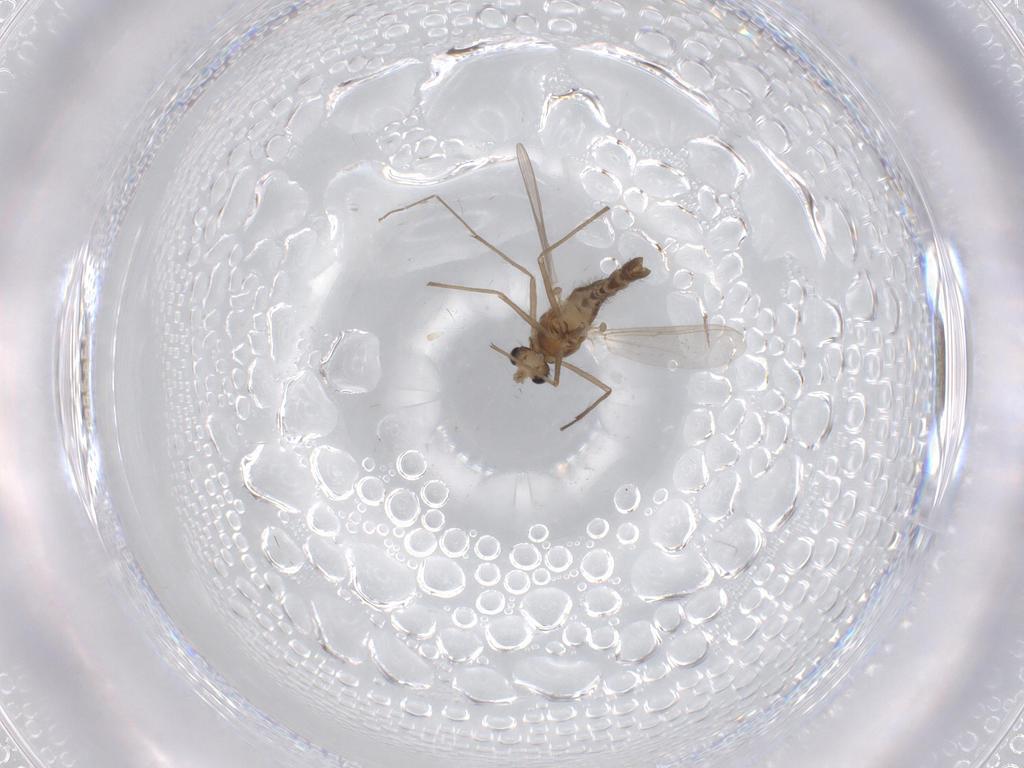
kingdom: Animalia
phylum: Arthropoda
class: Insecta
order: Diptera
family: Chironomidae
